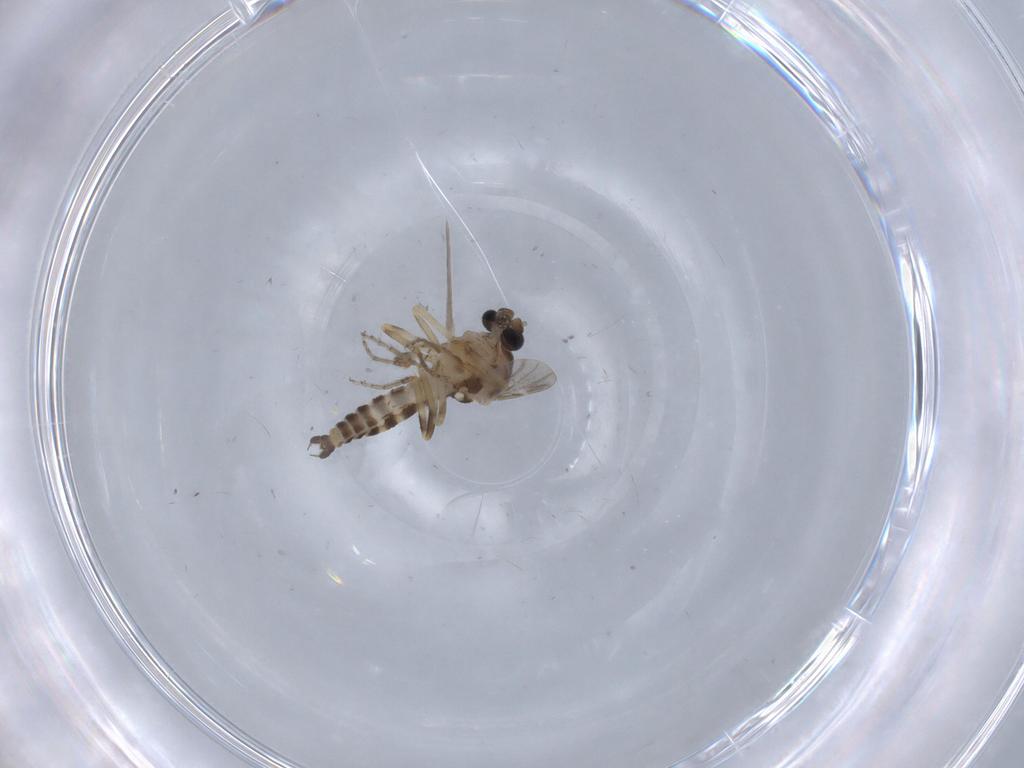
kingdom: Animalia
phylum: Arthropoda
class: Insecta
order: Diptera
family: Ceratopogonidae
